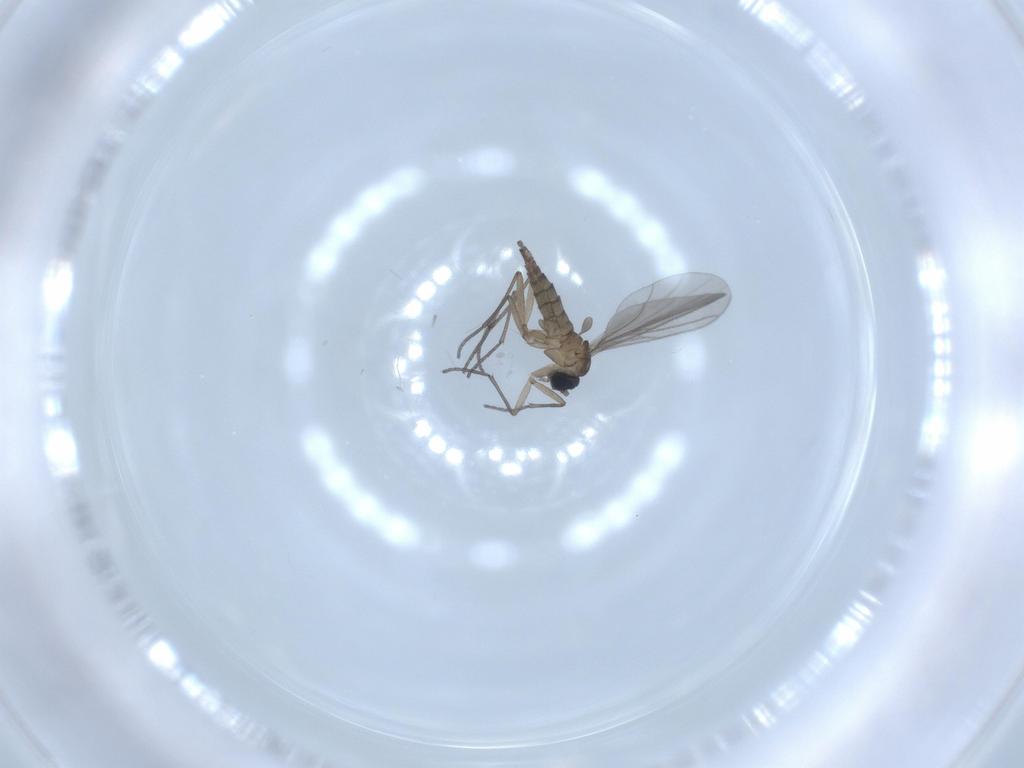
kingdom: Animalia
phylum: Arthropoda
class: Insecta
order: Diptera
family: Sciaridae
